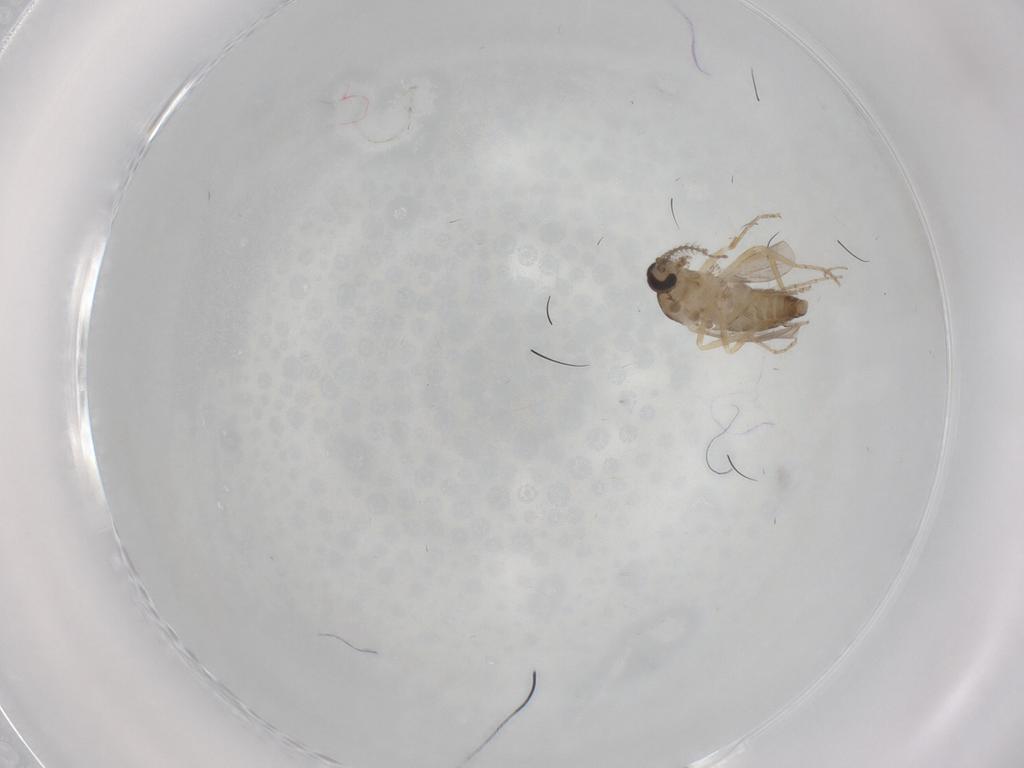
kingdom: Animalia
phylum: Arthropoda
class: Insecta
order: Diptera
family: Ceratopogonidae
